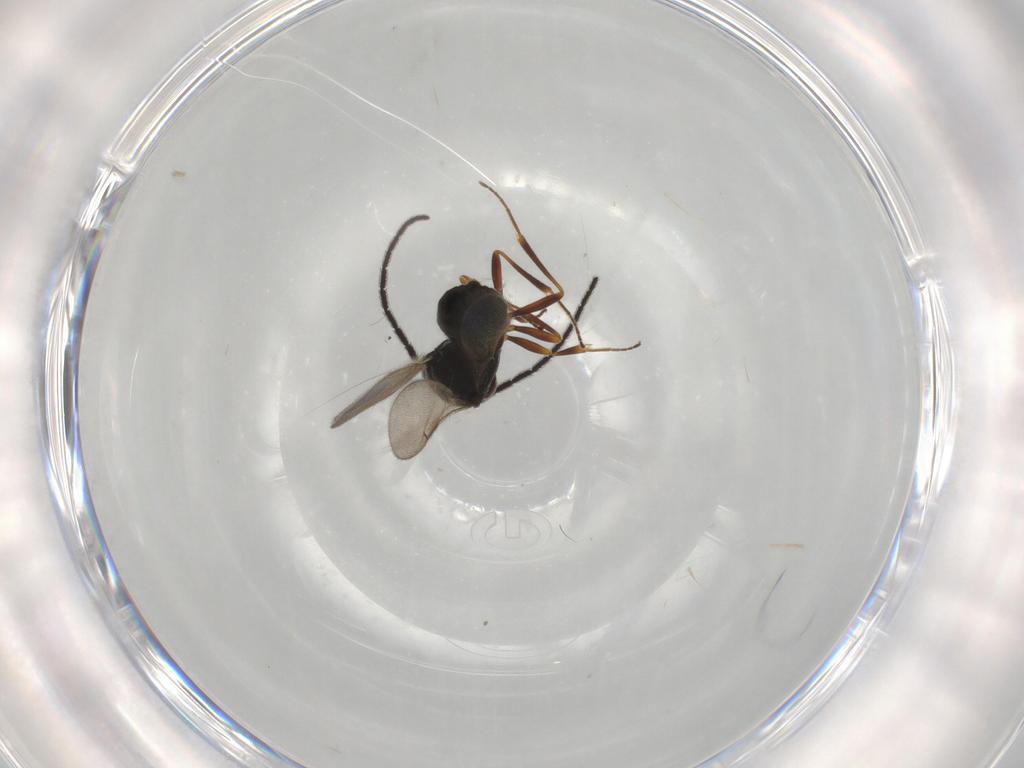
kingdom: Animalia
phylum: Arthropoda
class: Insecta
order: Hymenoptera
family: Scelionidae
